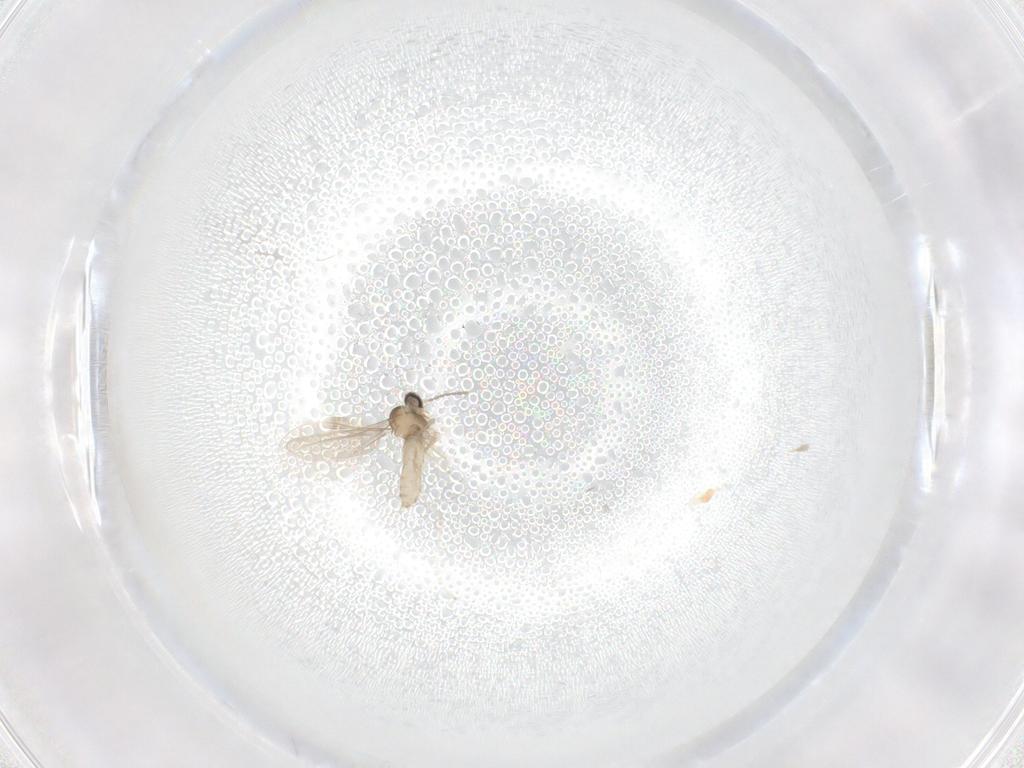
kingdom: Animalia
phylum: Arthropoda
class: Insecta
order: Diptera
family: Cecidomyiidae
